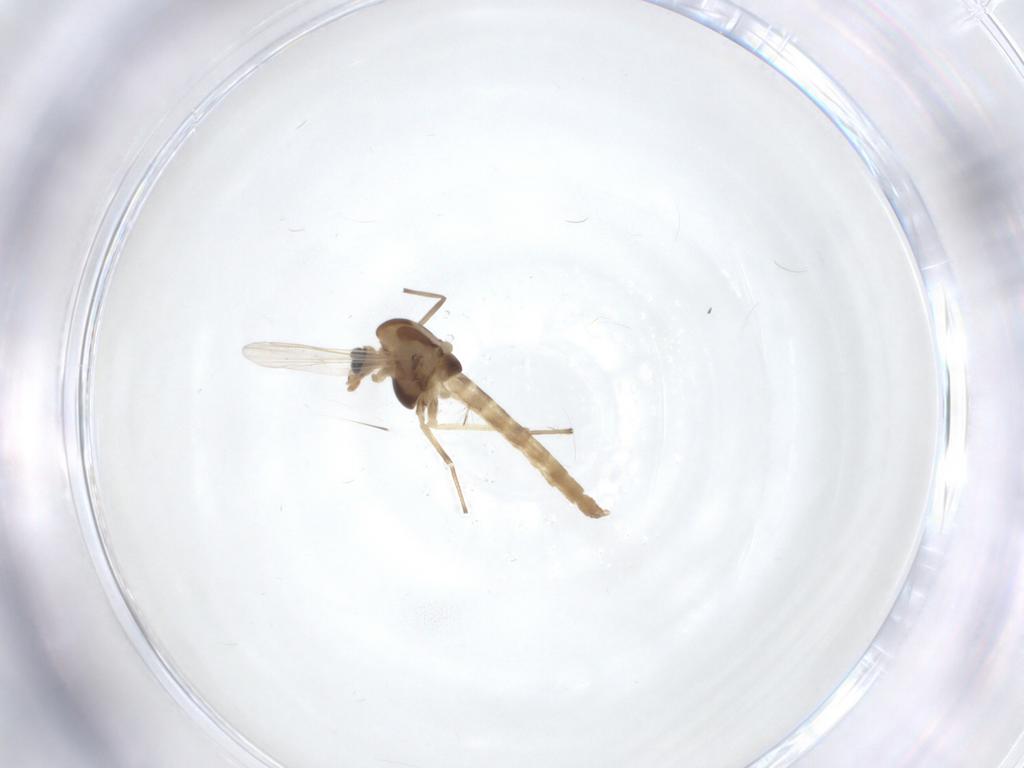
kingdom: Animalia
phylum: Arthropoda
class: Insecta
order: Diptera
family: Chironomidae
